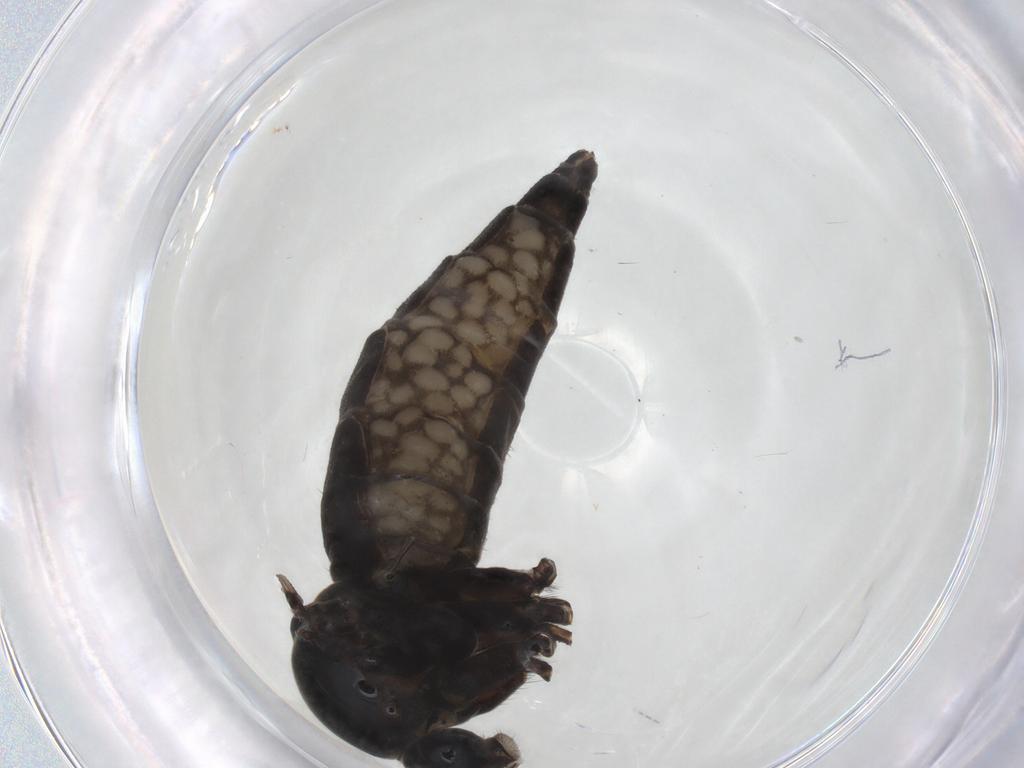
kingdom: Animalia
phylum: Arthropoda
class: Insecta
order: Diptera
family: Sciaridae
